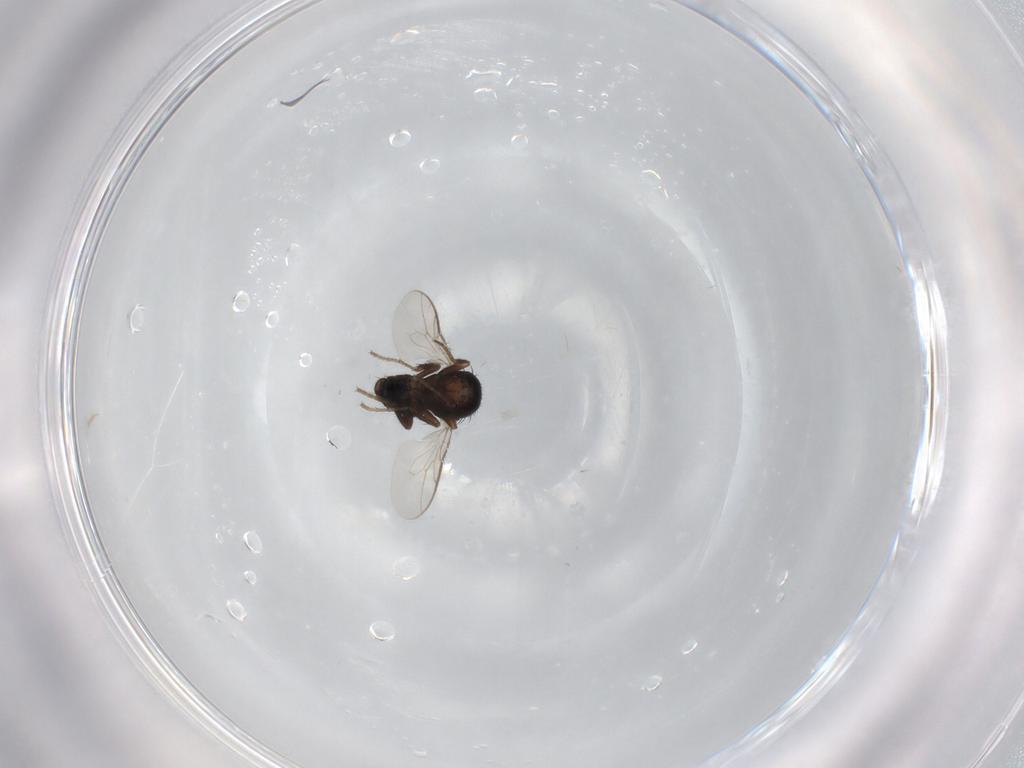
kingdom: Animalia
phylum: Arthropoda
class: Insecta
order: Diptera
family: Sphaeroceridae
